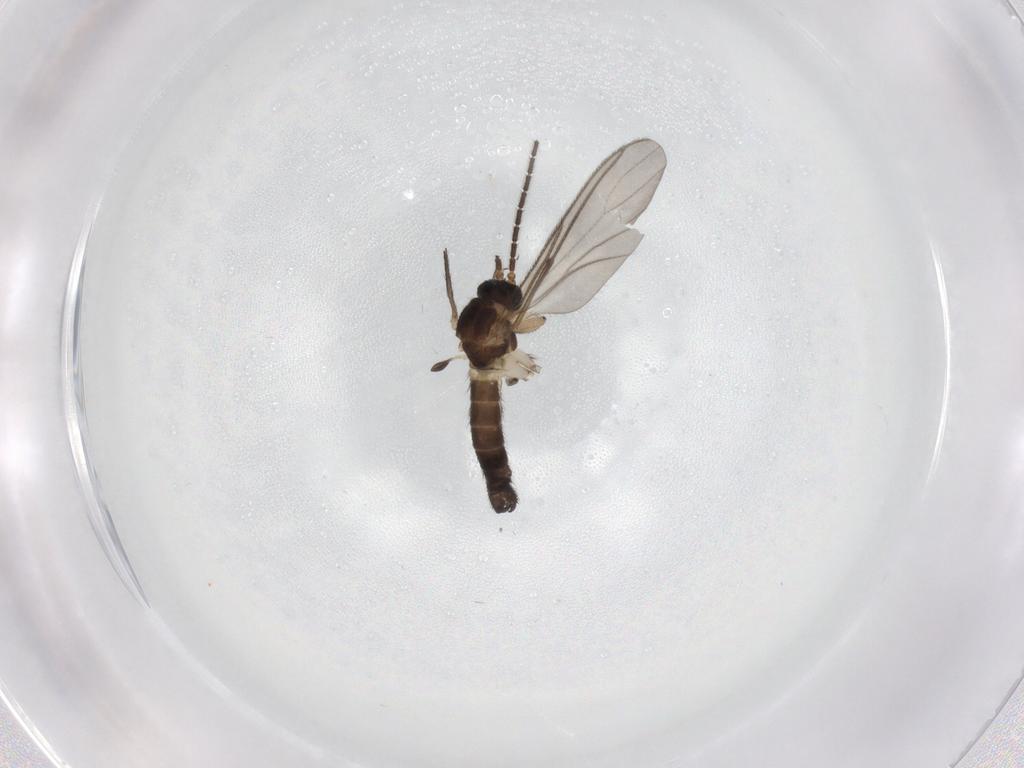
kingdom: Animalia
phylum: Arthropoda
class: Insecta
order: Diptera
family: Sciaridae
